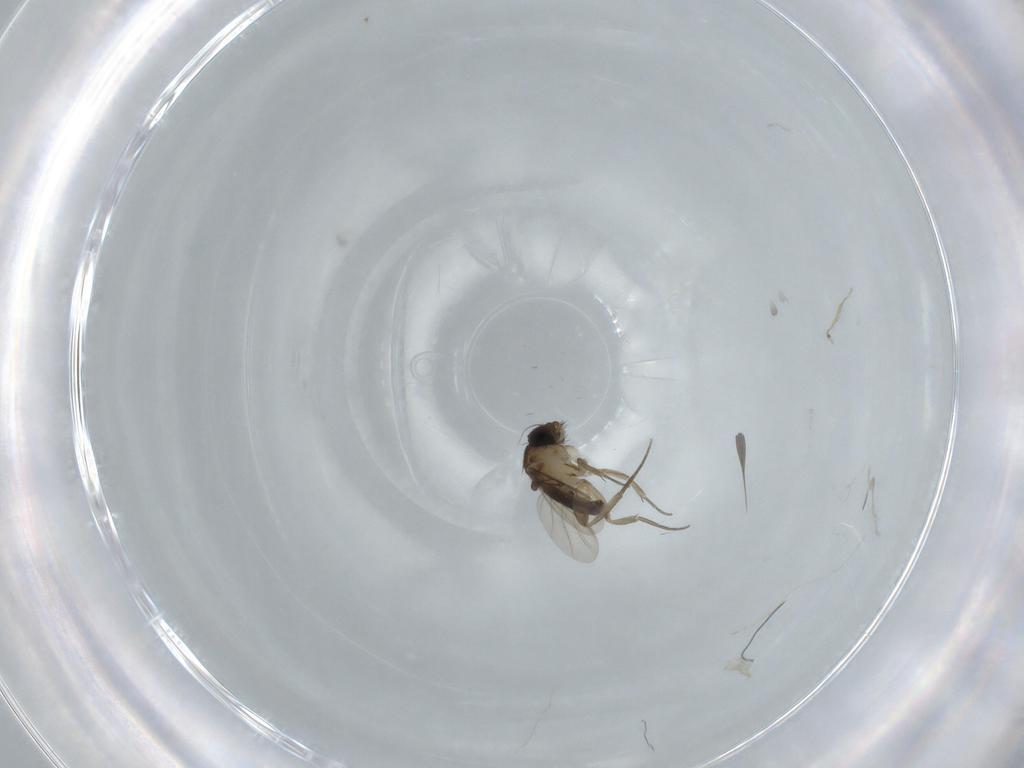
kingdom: Animalia
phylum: Arthropoda
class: Insecta
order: Diptera
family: Phoridae
